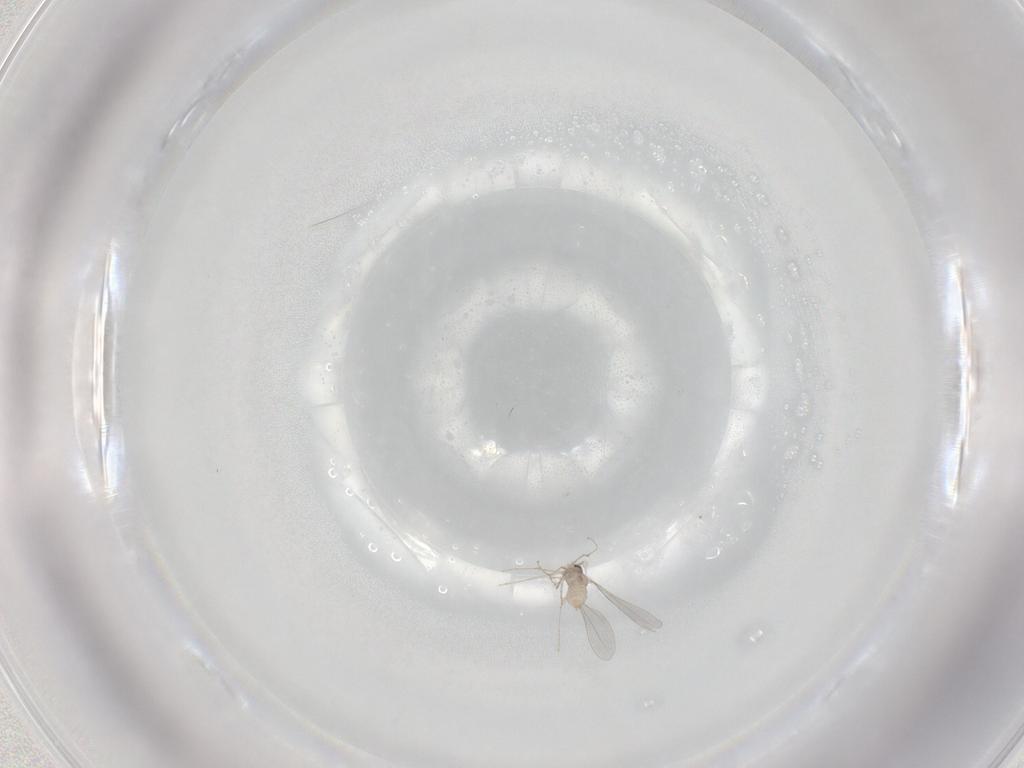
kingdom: Animalia
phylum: Arthropoda
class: Insecta
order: Diptera
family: Cecidomyiidae
